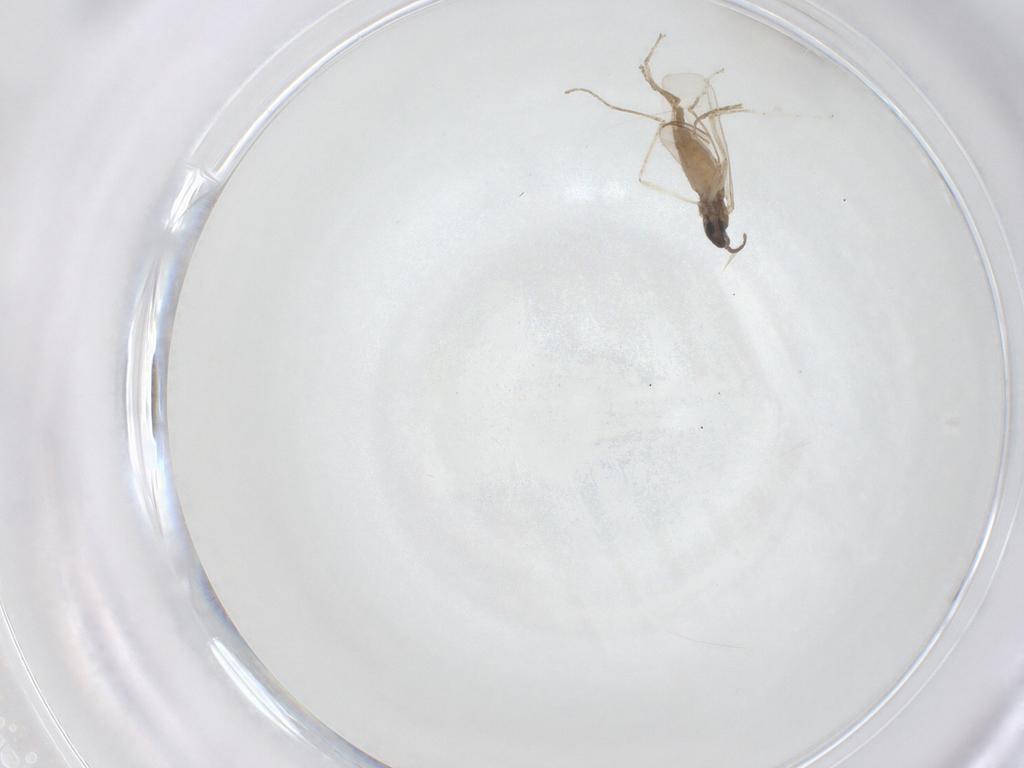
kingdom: Animalia
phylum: Arthropoda
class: Insecta
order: Diptera
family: Cecidomyiidae
